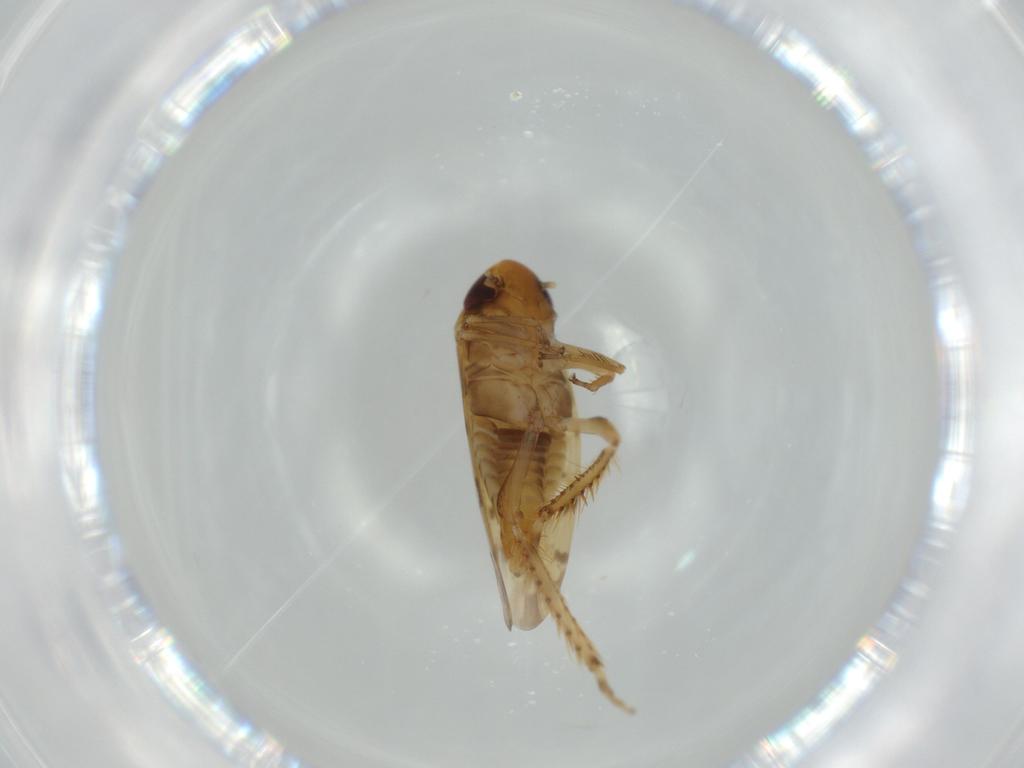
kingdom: Animalia
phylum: Arthropoda
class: Insecta
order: Hemiptera
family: Cicadellidae
